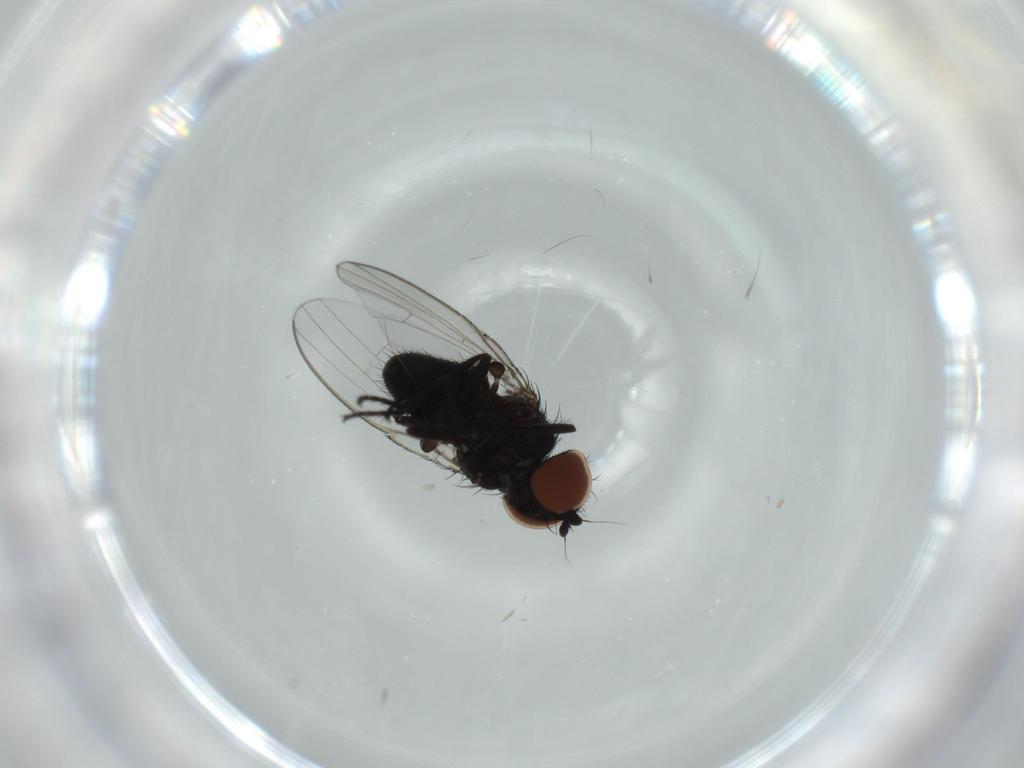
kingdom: Animalia
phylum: Arthropoda
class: Insecta
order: Diptera
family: Milichiidae
